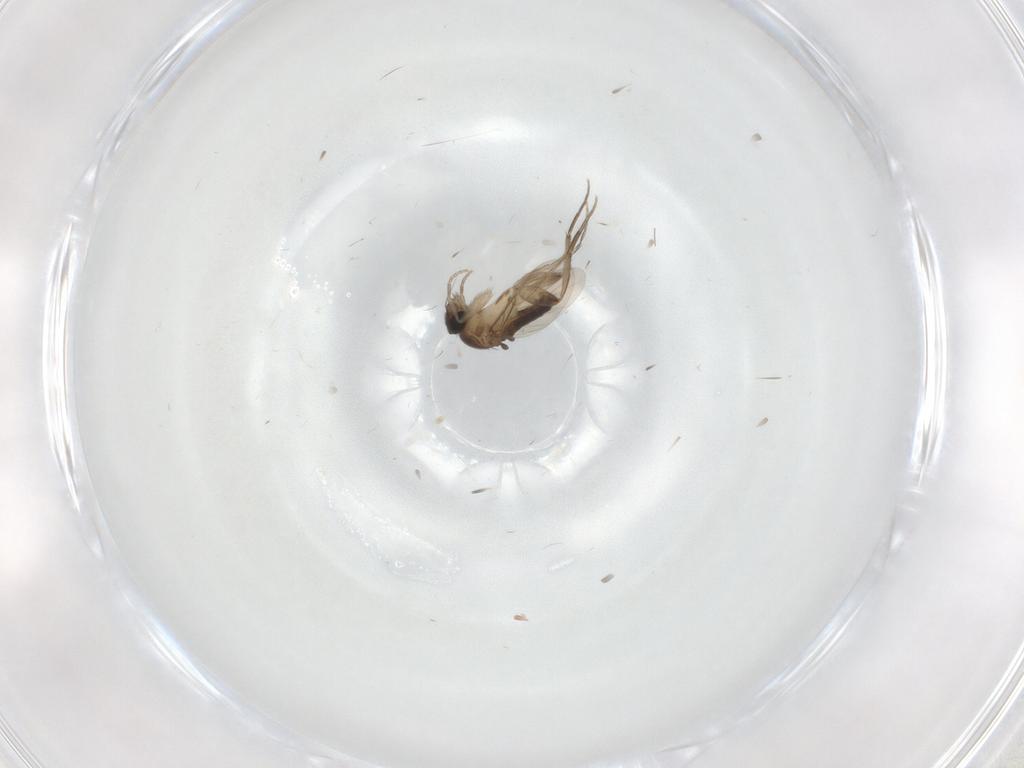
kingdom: Animalia
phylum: Arthropoda
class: Insecta
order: Diptera
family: Phoridae
